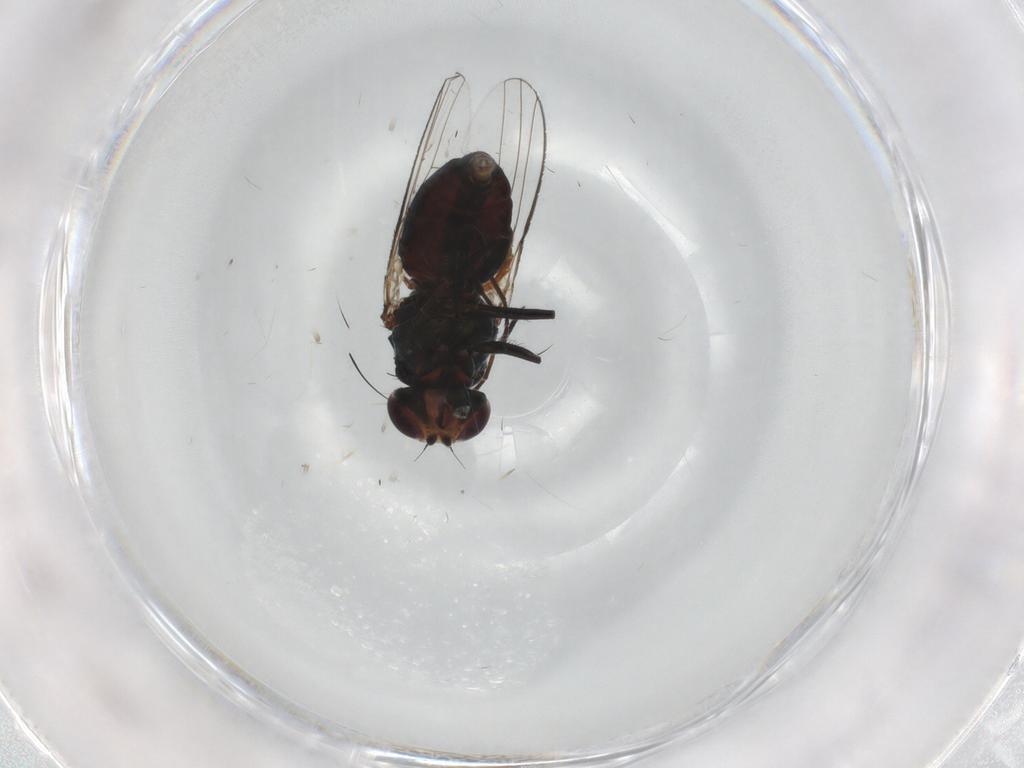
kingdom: Animalia
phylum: Arthropoda
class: Insecta
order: Diptera
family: Carnidae
